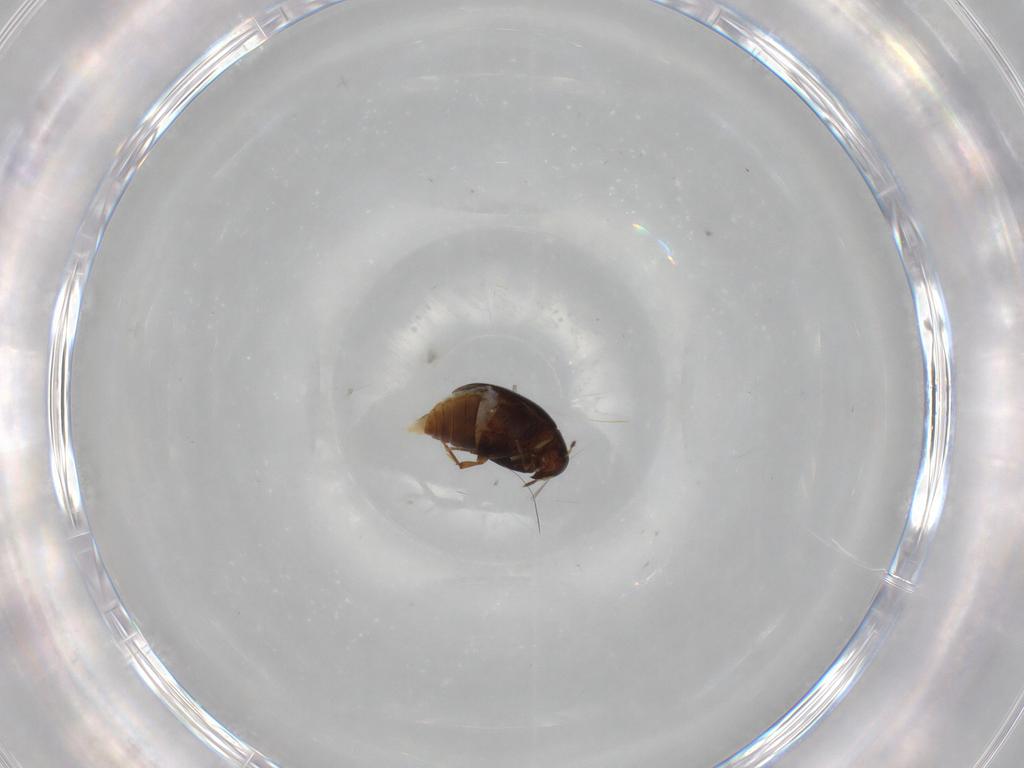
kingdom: Animalia
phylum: Arthropoda
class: Insecta
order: Coleoptera
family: Melandryidae
